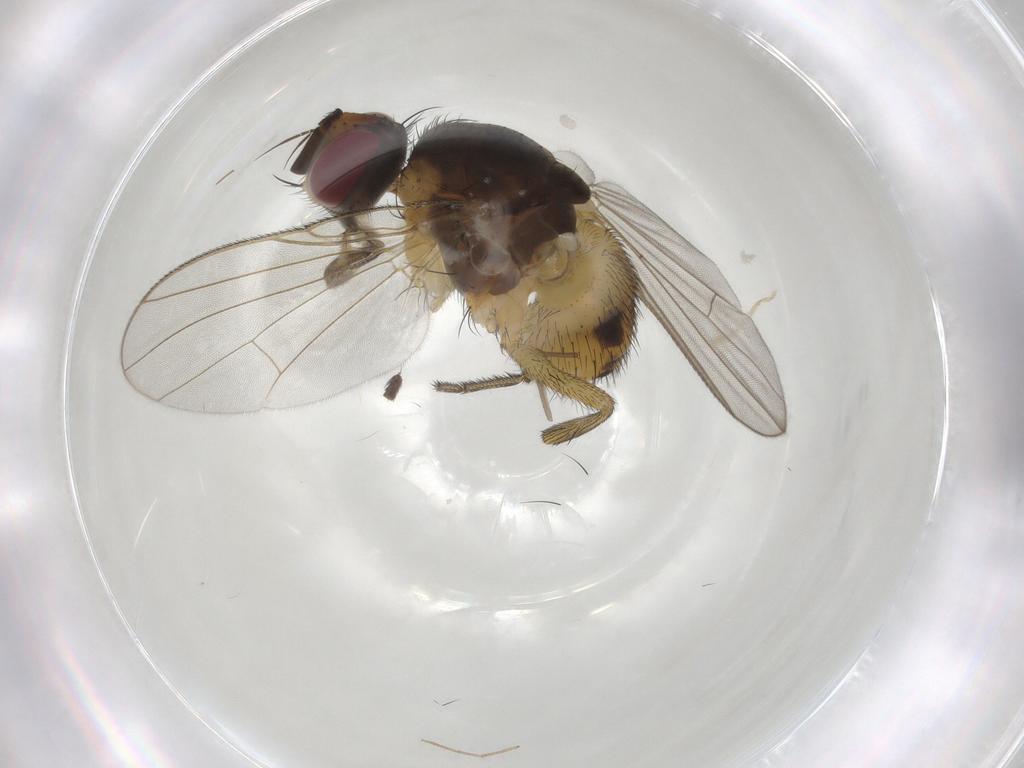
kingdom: Animalia
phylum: Arthropoda
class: Insecta
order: Diptera
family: Muscidae
